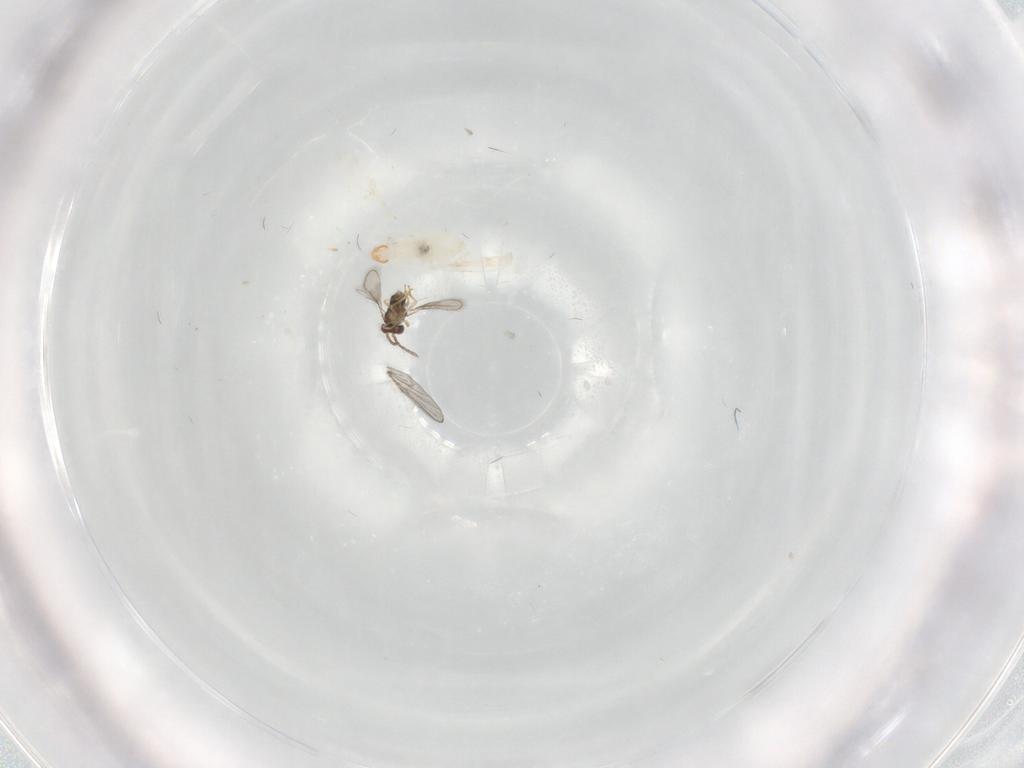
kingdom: Animalia
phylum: Arthropoda
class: Insecta
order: Diptera
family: Cecidomyiidae
